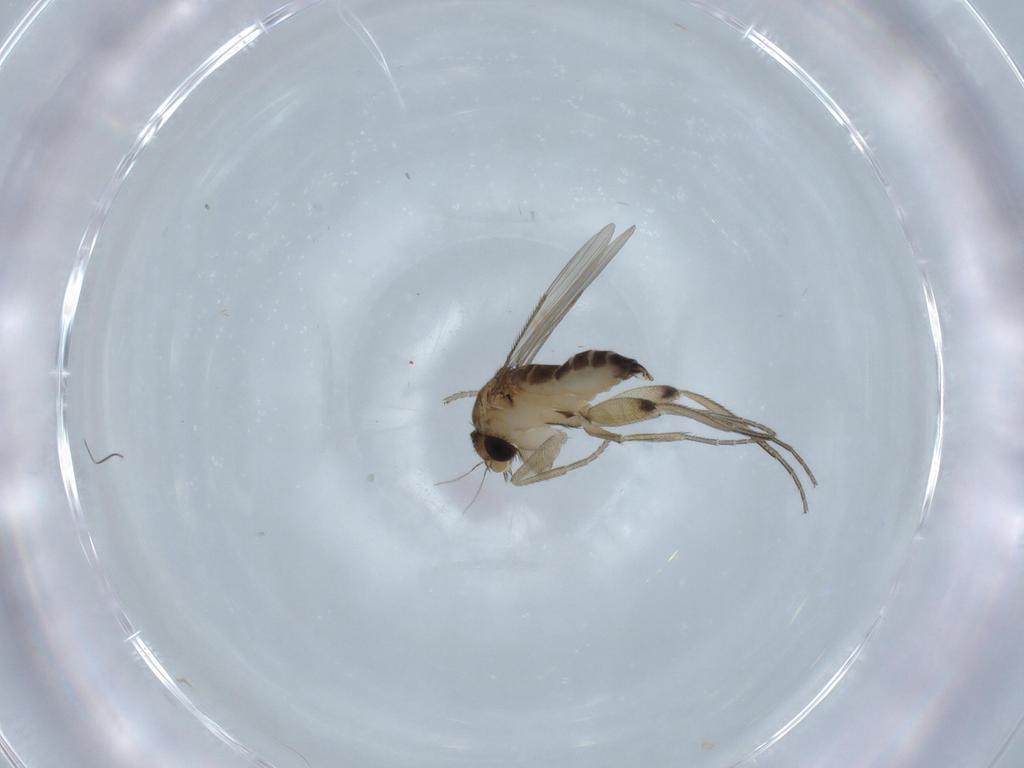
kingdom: Animalia
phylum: Arthropoda
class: Insecta
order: Diptera
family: Phoridae
